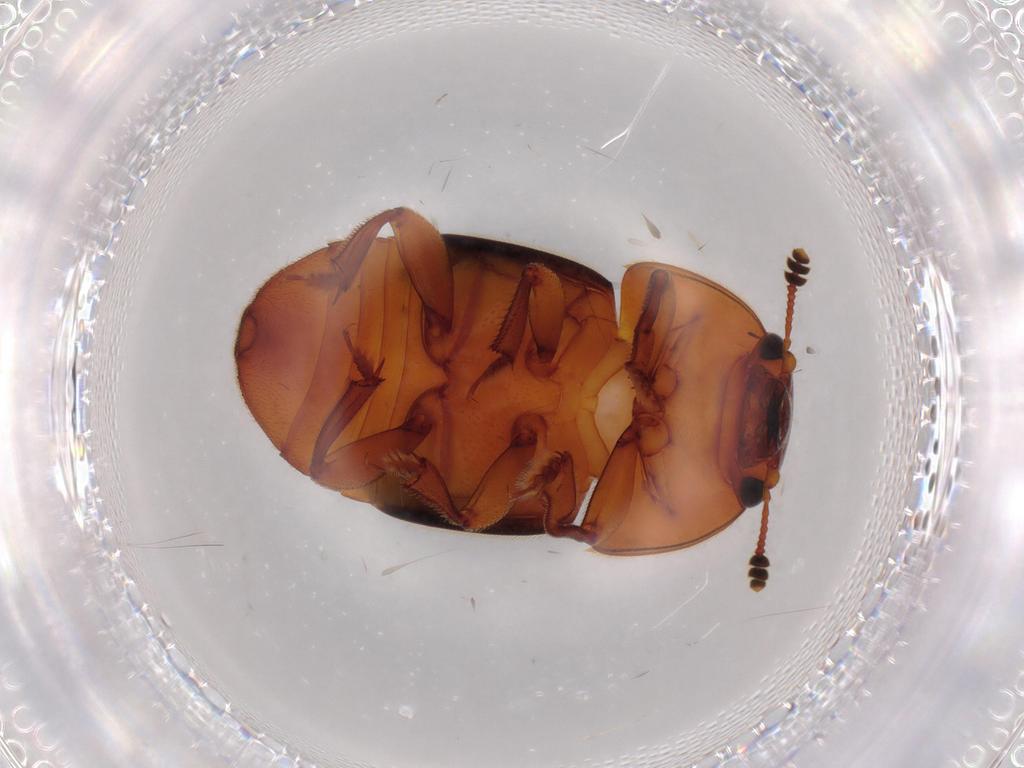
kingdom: Animalia
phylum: Arthropoda
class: Insecta
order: Coleoptera
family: Nitidulidae
